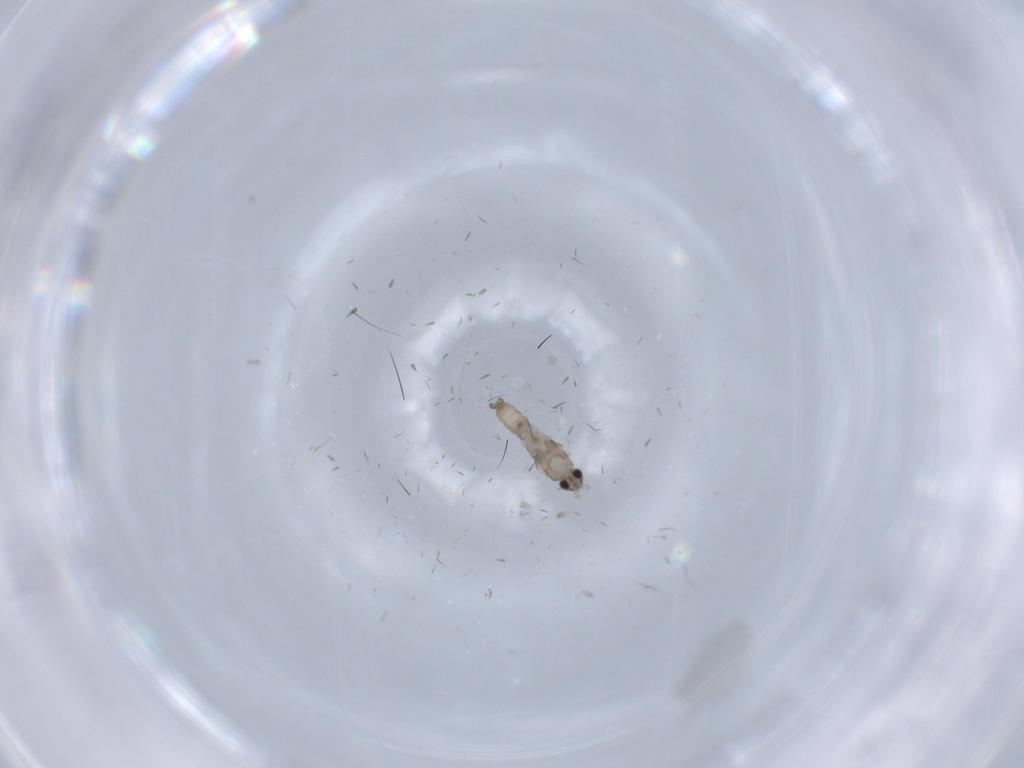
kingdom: Animalia
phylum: Arthropoda
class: Insecta
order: Diptera
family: Cecidomyiidae
